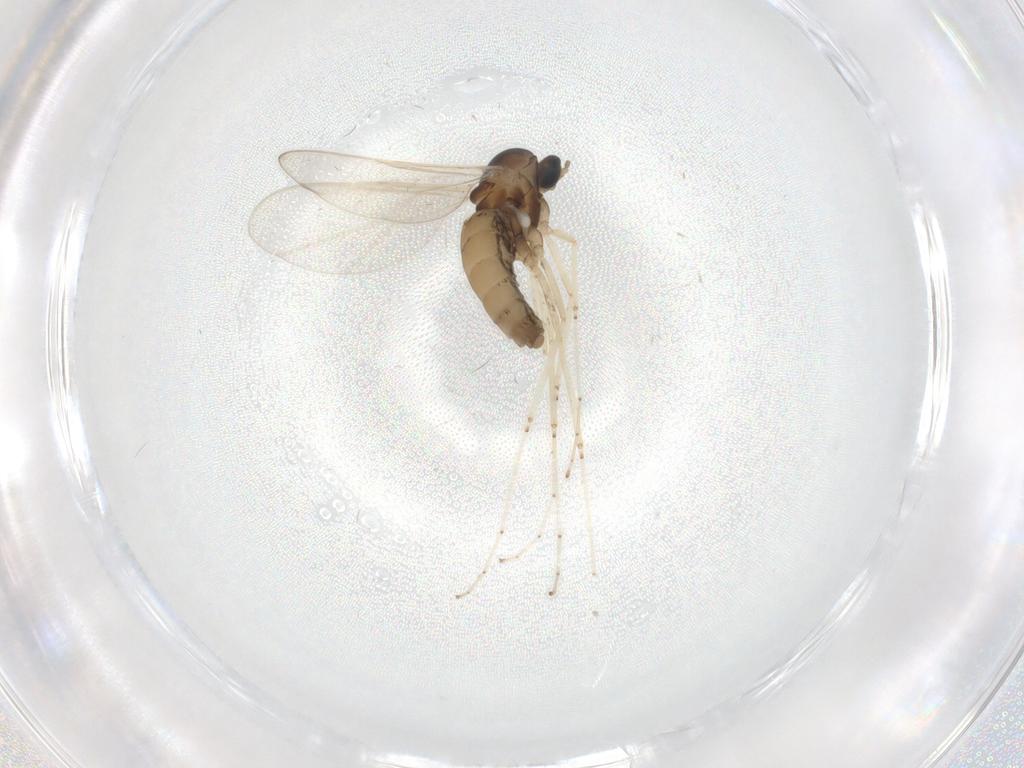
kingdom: Animalia
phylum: Arthropoda
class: Insecta
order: Diptera
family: Cecidomyiidae
